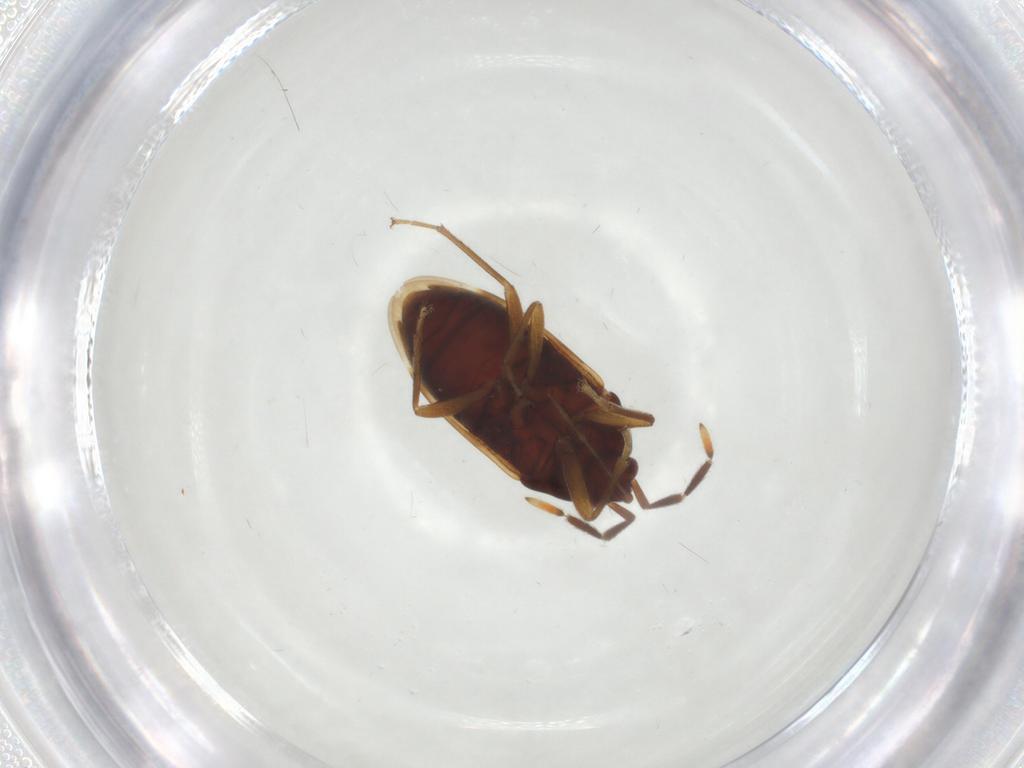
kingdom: Animalia
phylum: Arthropoda
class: Insecta
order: Hemiptera
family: Rhyparochromidae
